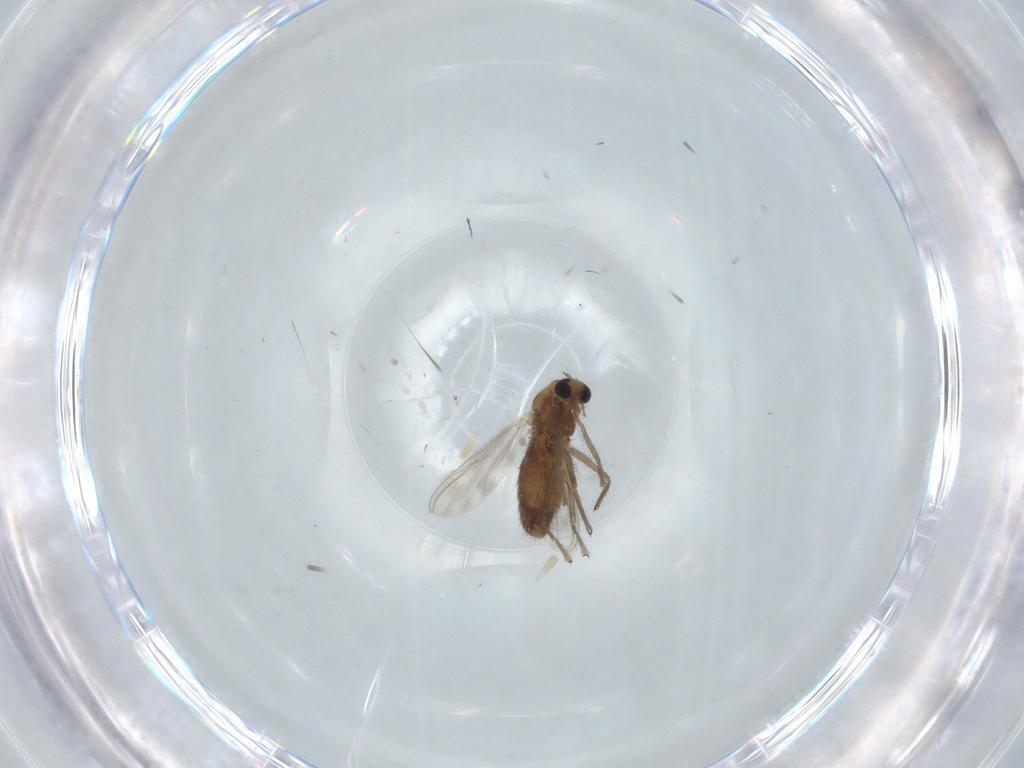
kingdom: Animalia
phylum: Arthropoda
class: Insecta
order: Diptera
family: Chironomidae
